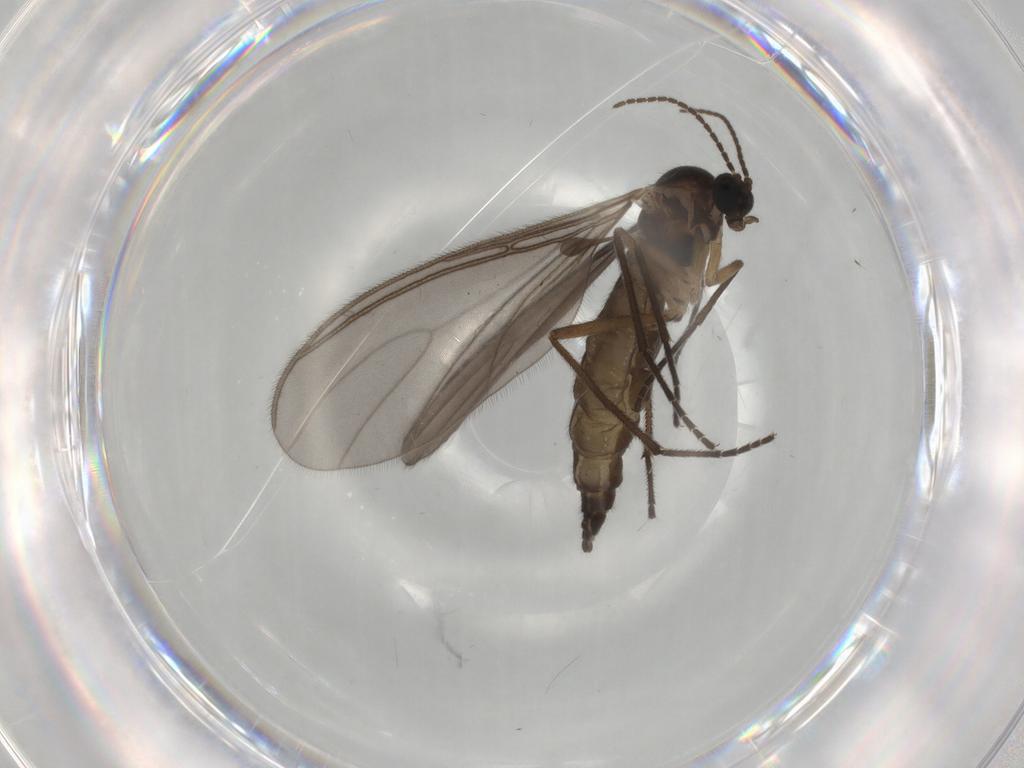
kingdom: Animalia
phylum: Arthropoda
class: Insecta
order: Diptera
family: Sciaridae
